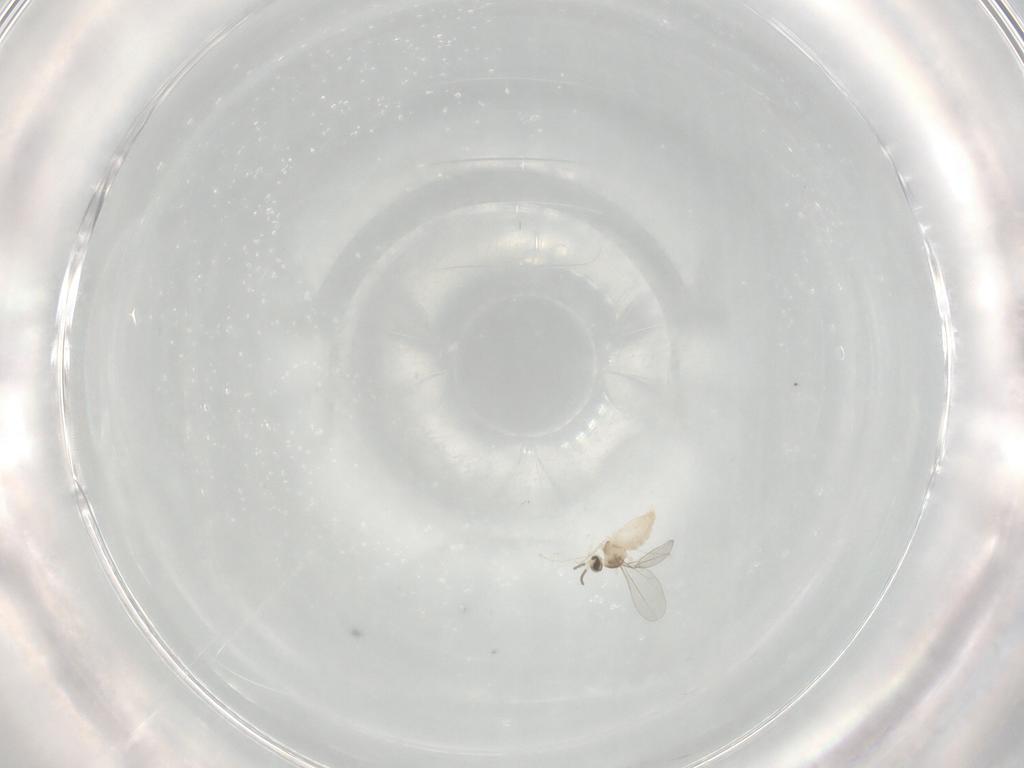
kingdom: Animalia
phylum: Arthropoda
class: Insecta
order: Diptera
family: Cecidomyiidae
